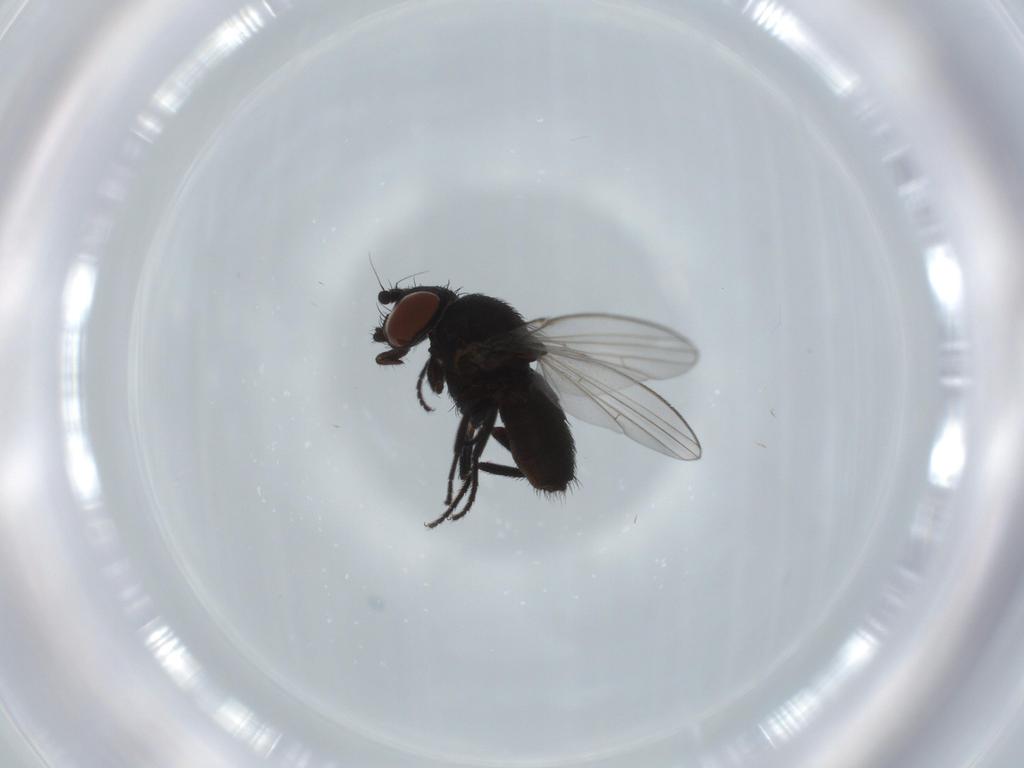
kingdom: Animalia
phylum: Arthropoda
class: Insecta
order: Diptera
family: Milichiidae
